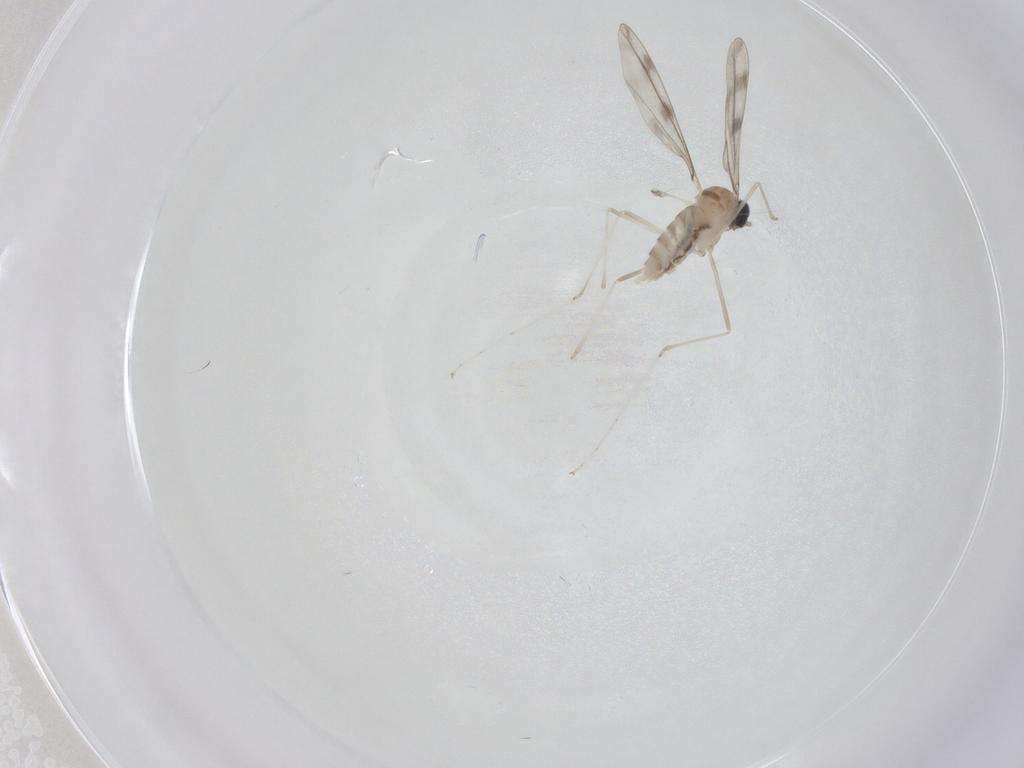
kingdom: Animalia
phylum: Arthropoda
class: Insecta
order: Diptera
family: Cecidomyiidae
